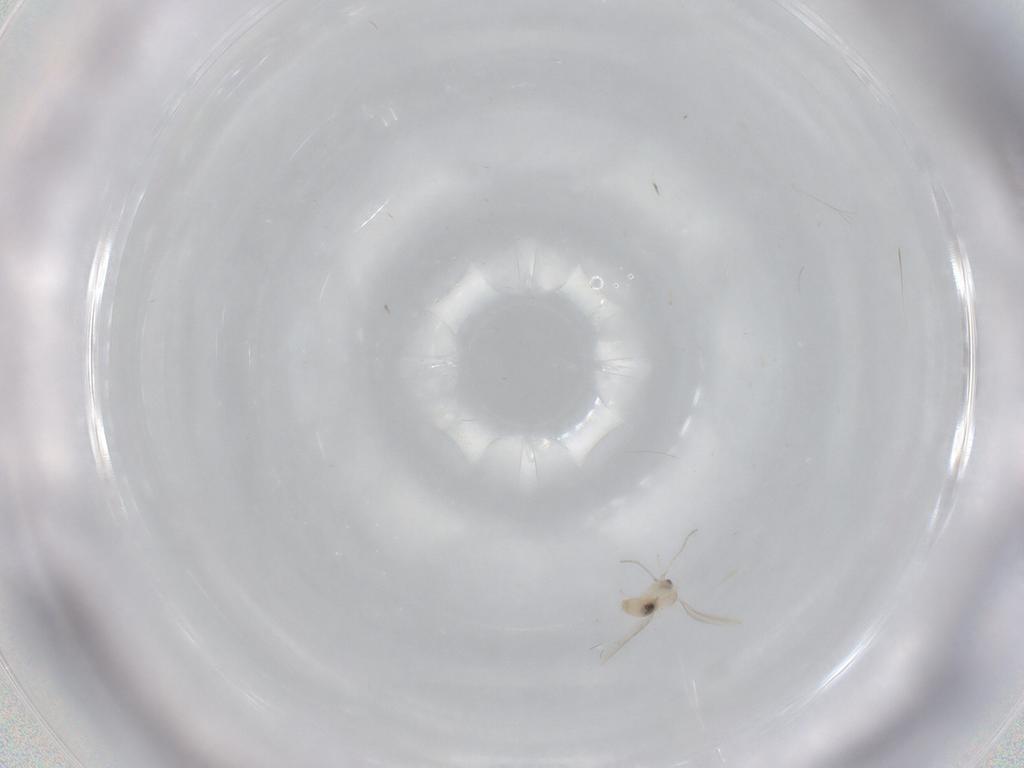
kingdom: Animalia
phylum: Arthropoda
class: Insecta
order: Diptera
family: Cecidomyiidae
